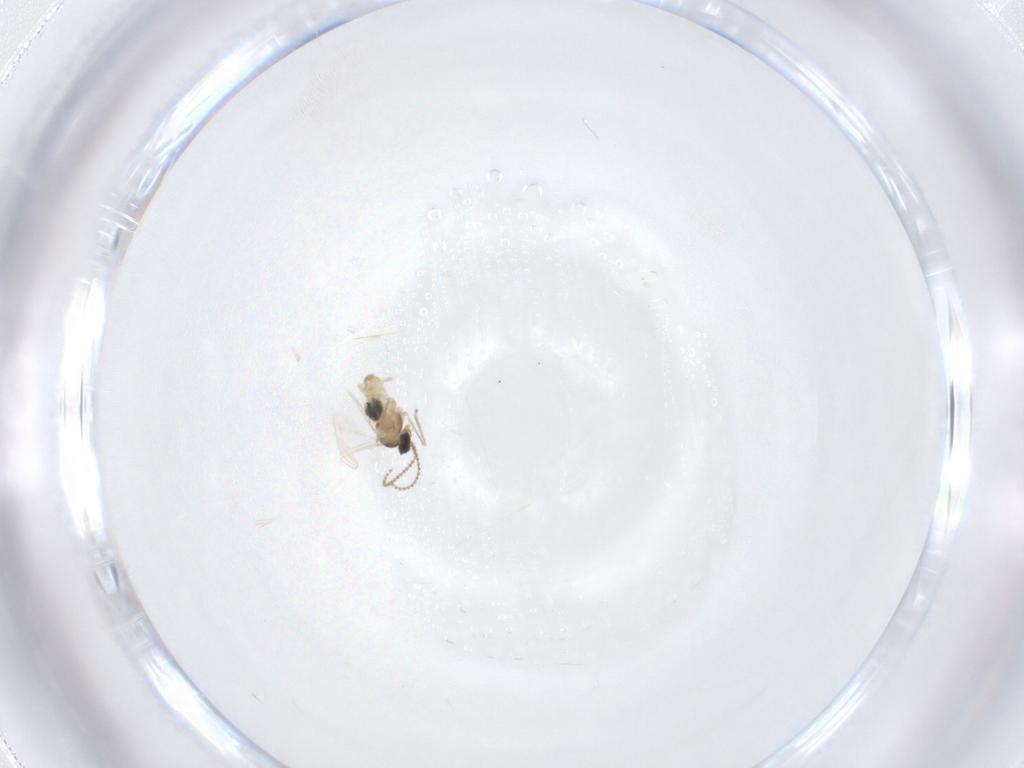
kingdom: Animalia
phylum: Arthropoda
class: Insecta
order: Diptera
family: Cecidomyiidae
